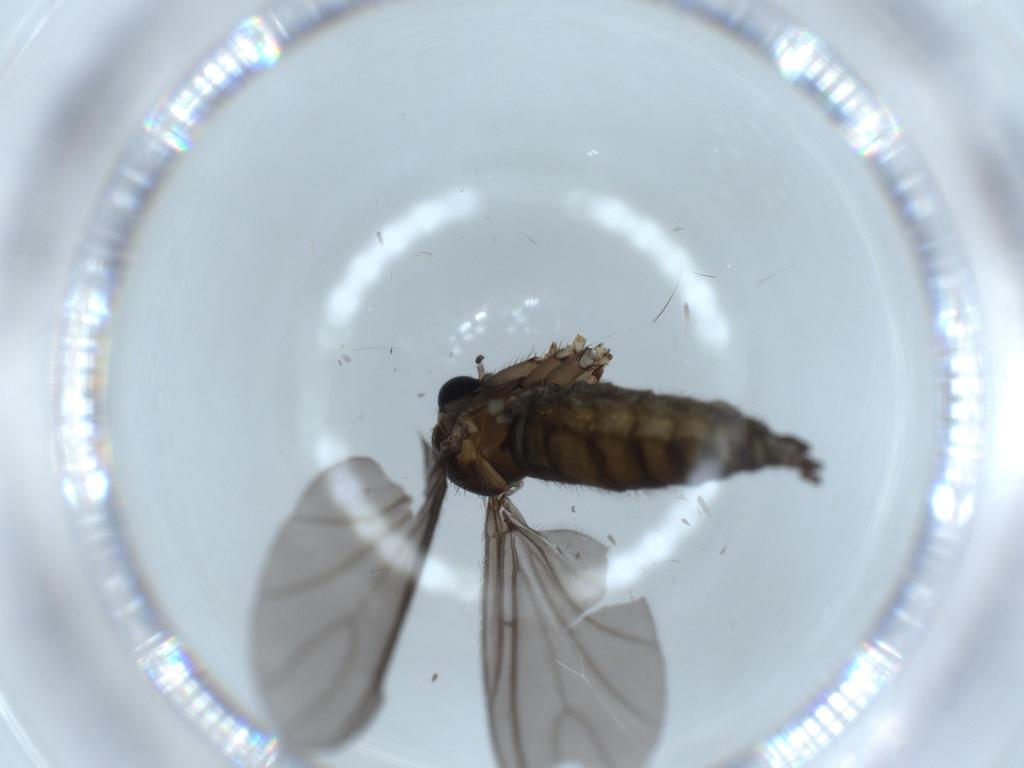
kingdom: Animalia
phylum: Arthropoda
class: Insecta
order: Diptera
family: Sciaridae
